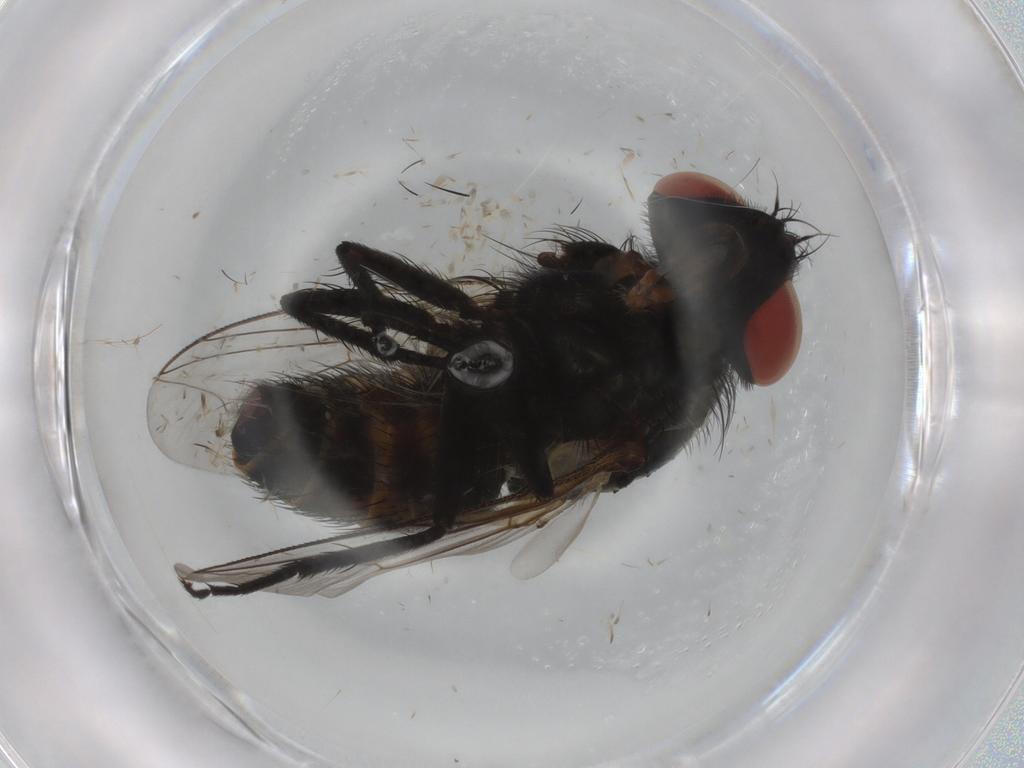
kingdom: Animalia
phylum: Arthropoda
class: Insecta
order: Diptera
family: Sarcophagidae
